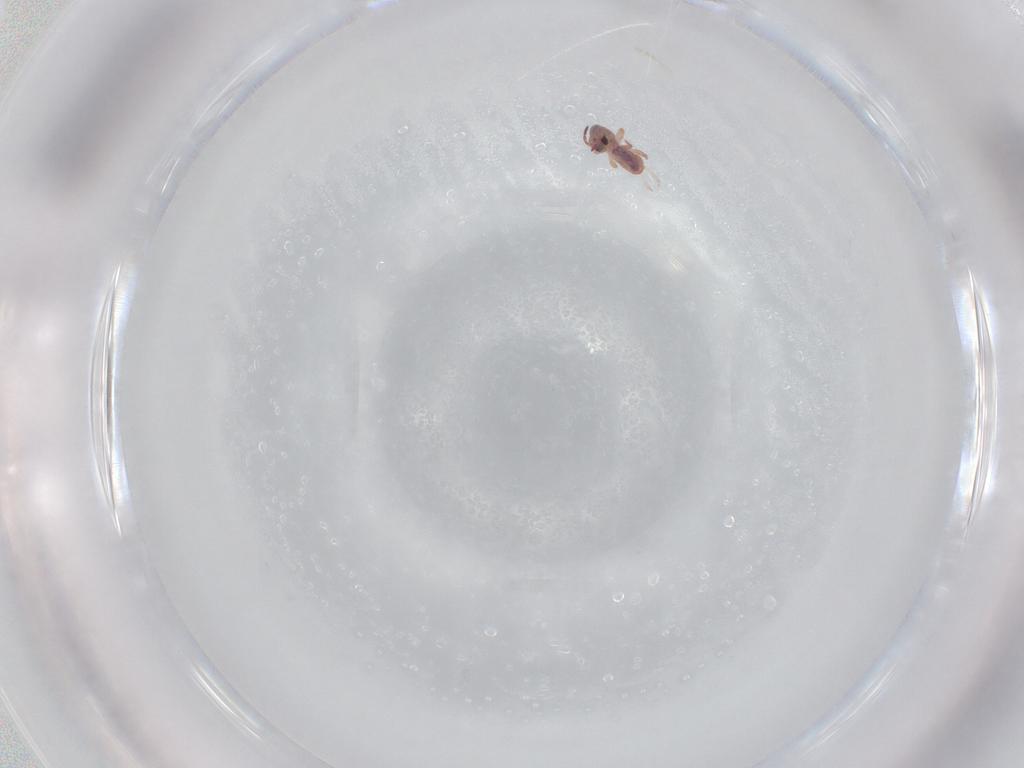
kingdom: Animalia
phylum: Arthropoda
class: Collembola
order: Symphypleona
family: Sminthurididae
